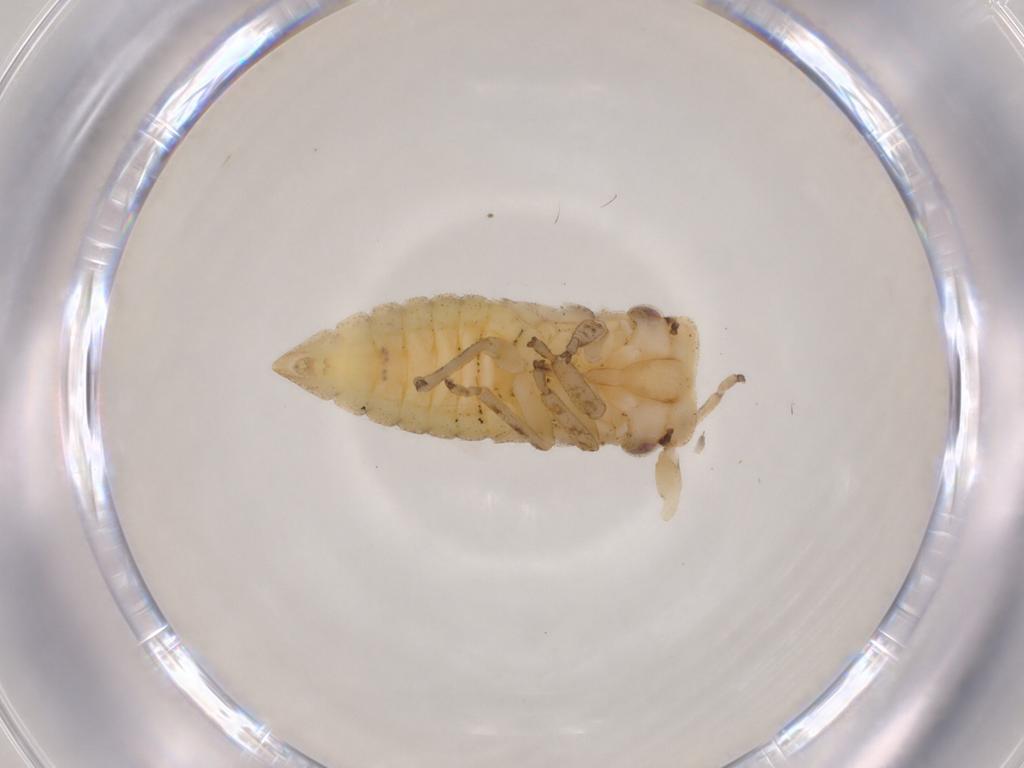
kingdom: Animalia
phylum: Arthropoda
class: Insecta
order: Hemiptera
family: Cicadellidae
